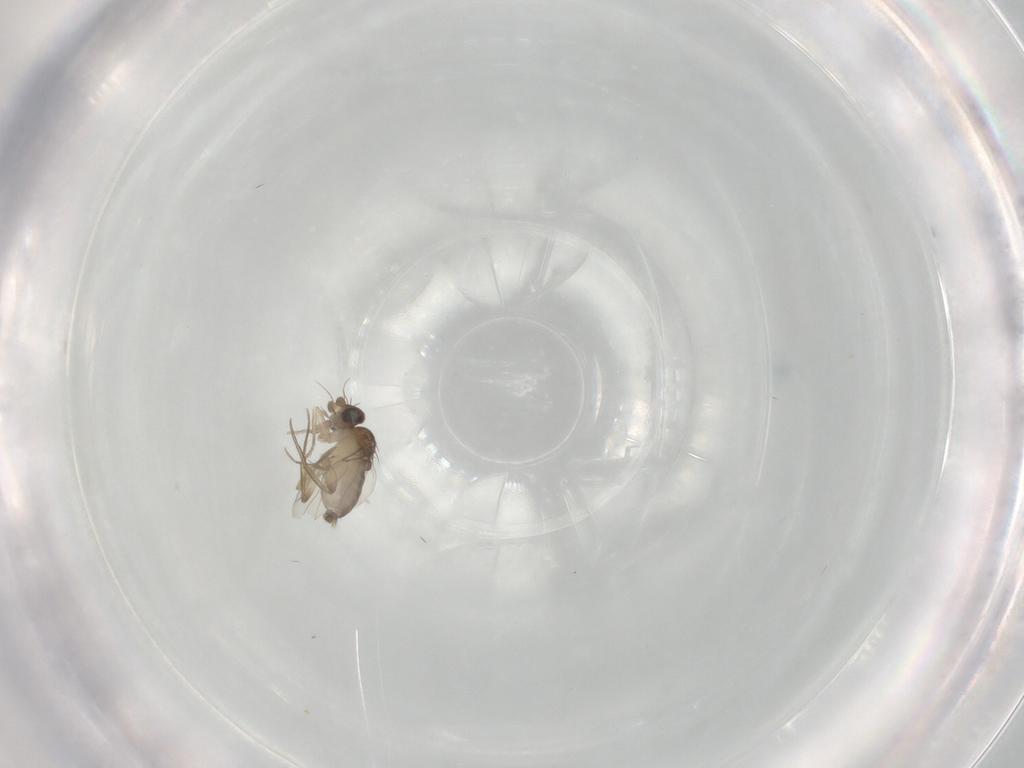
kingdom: Animalia
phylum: Arthropoda
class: Insecta
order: Diptera
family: Phoridae
